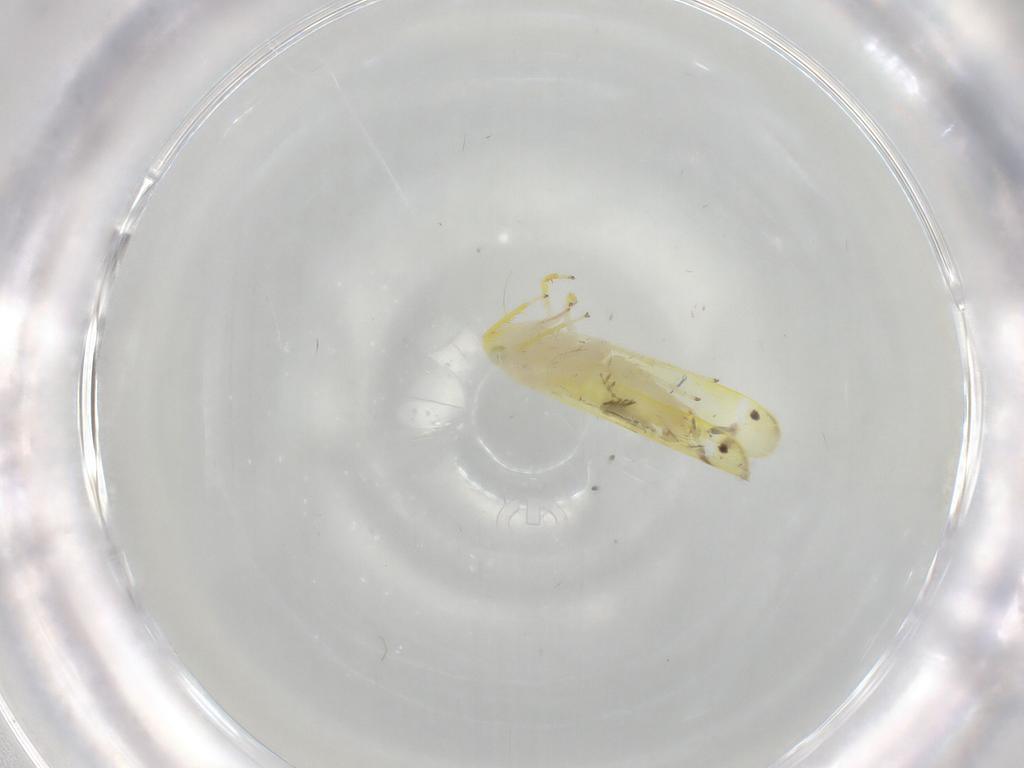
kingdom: Animalia
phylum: Arthropoda
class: Insecta
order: Hemiptera
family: Cicadellidae
